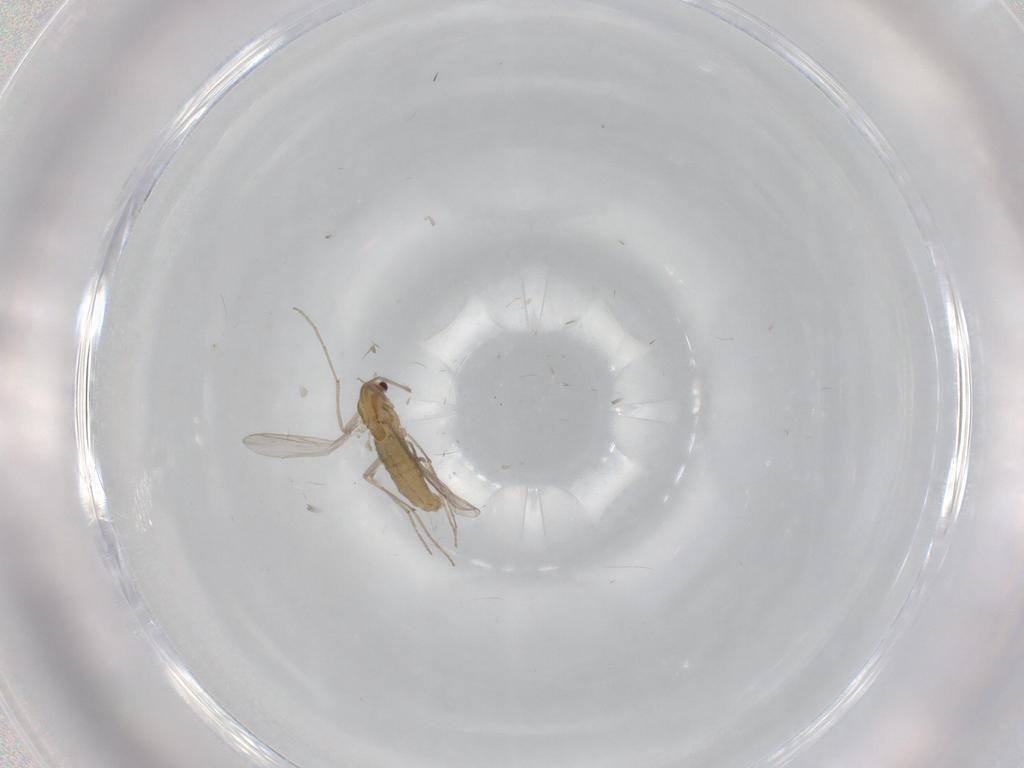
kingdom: Animalia
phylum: Arthropoda
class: Insecta
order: Diptera
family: Chironomidae
